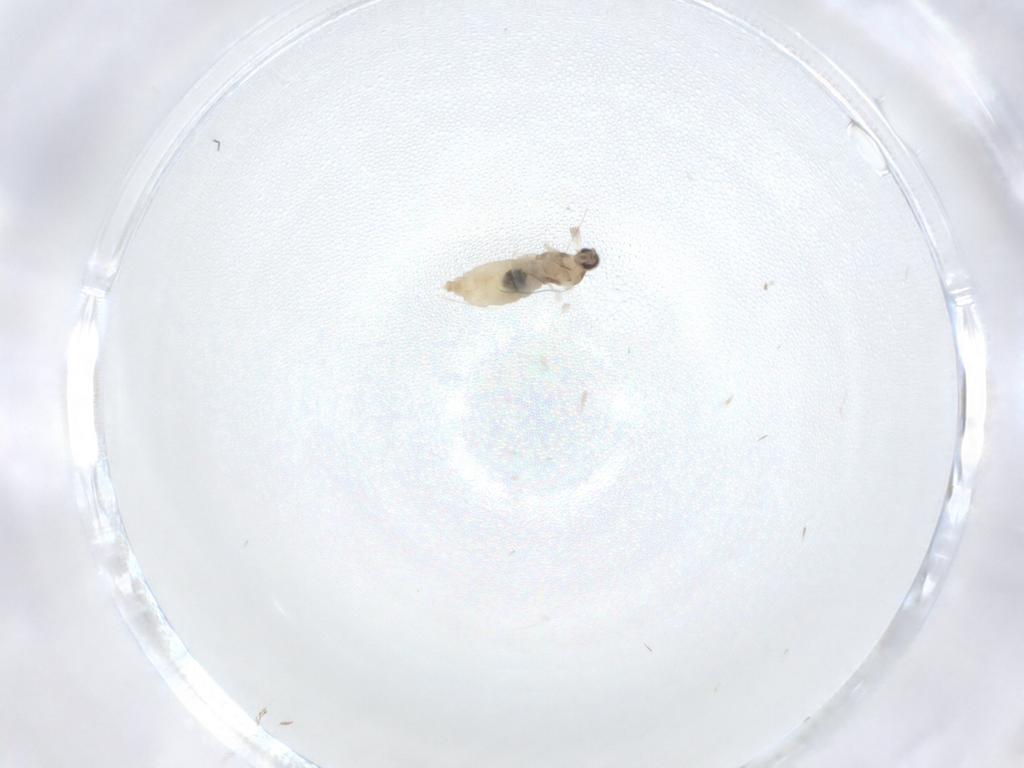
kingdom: Animalia
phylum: Arthropoda
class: Insecta
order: Diptera
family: Cecidomyiidae
